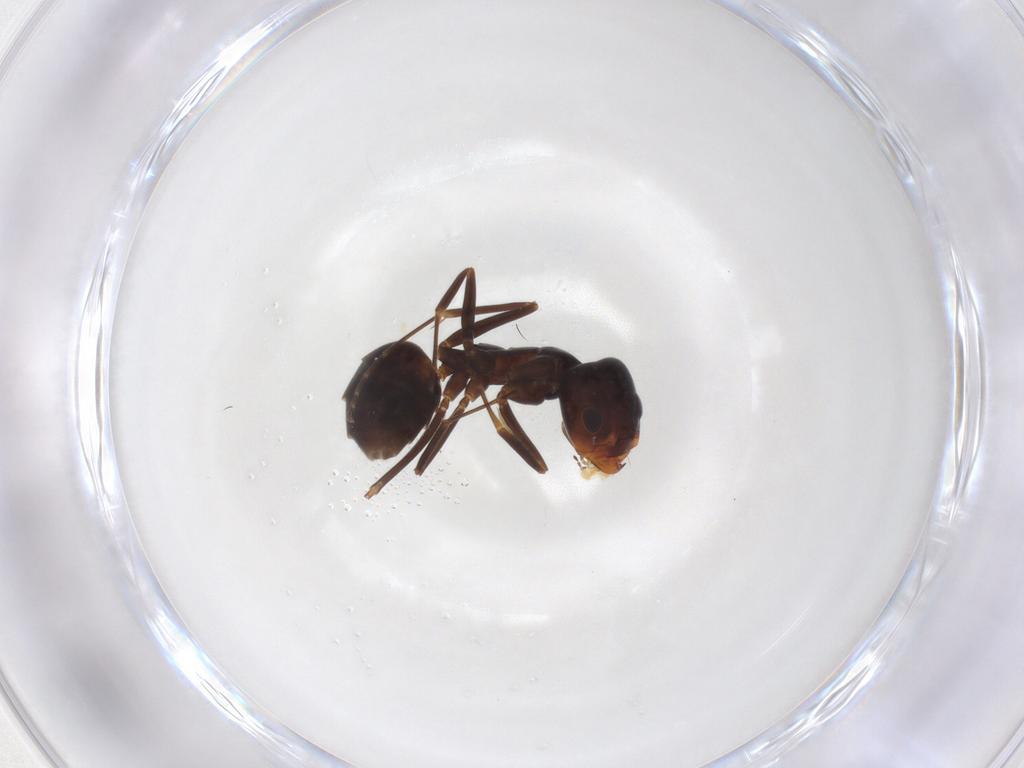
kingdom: Animalia
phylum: Arthropoda
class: Insecta
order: Hymenoptera
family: Formicidae
